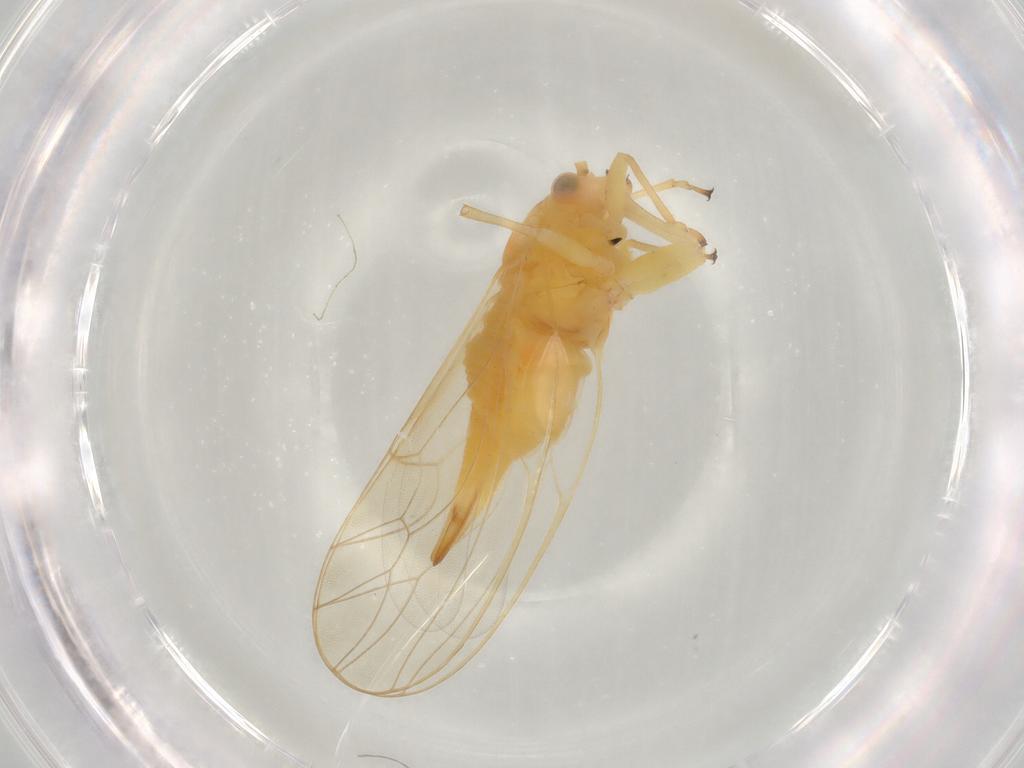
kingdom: Animalia
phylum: Arthropoda
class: Insecta
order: Hemiptera
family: Psyllidae
